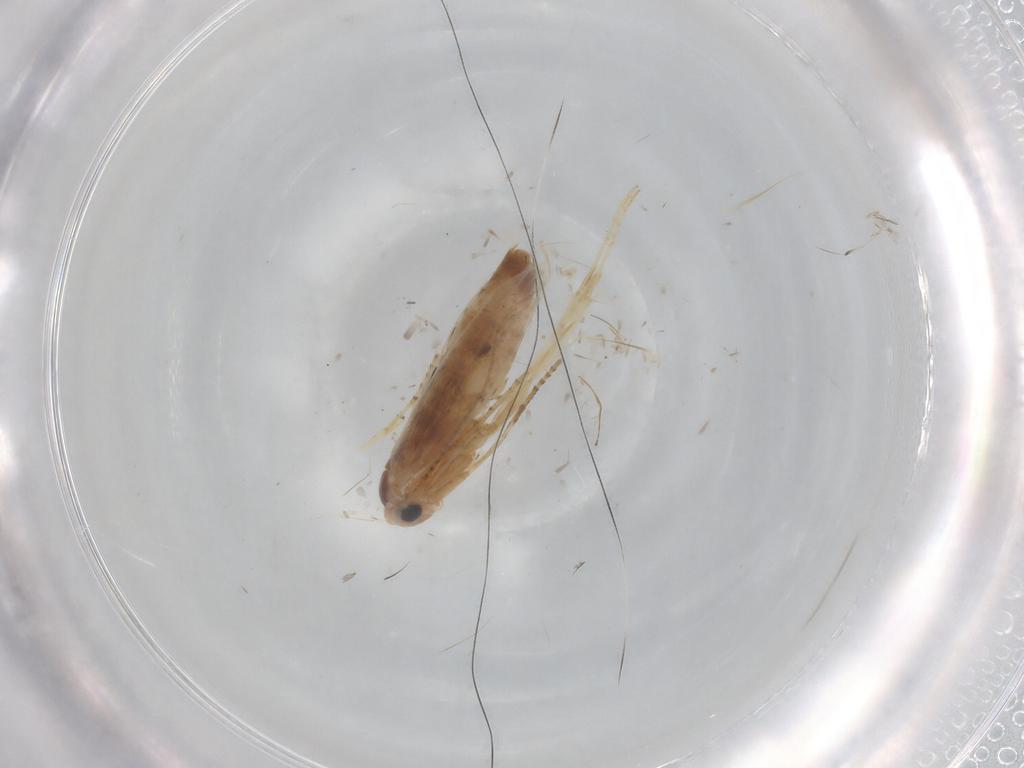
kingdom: Animalia
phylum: Arthropoda
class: Insecta
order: Lepidoptera
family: Bucculatricidae
